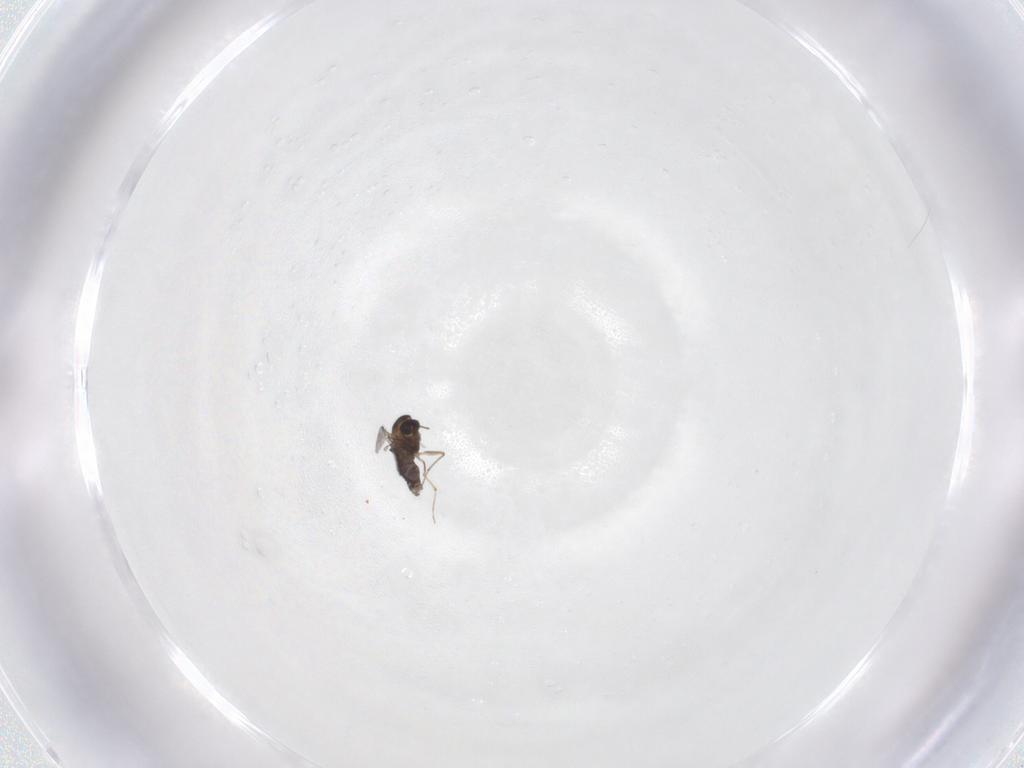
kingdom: Animalia
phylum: Arthropoda
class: Insecta
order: Diptera
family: Chironomidae
